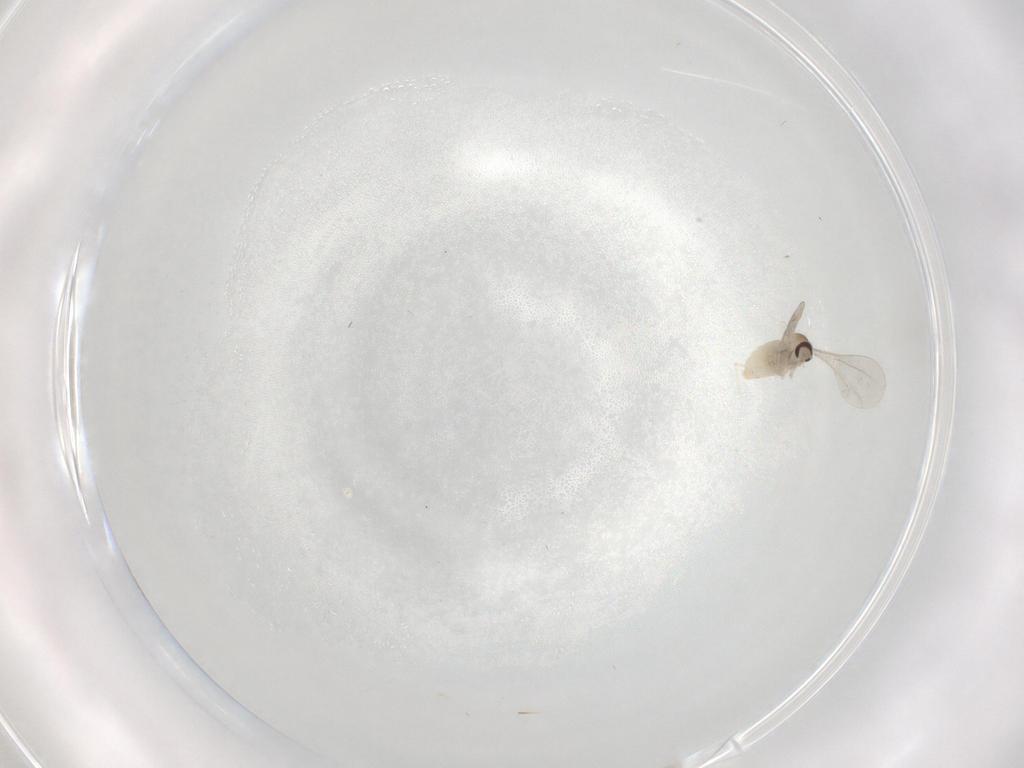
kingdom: Animalia
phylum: Arthropoda
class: Insecta
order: Diptera
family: Cecidomyiidae
